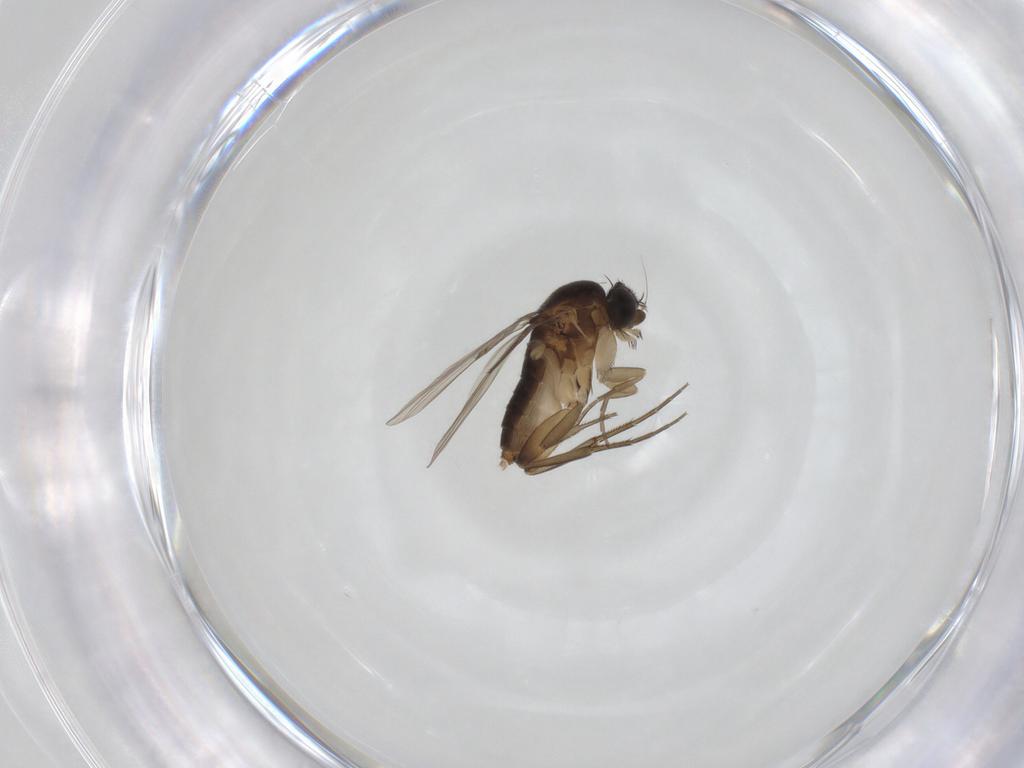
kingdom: Animalia
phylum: Arthropoda
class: Insecta
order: Diptera
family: Phoridae
